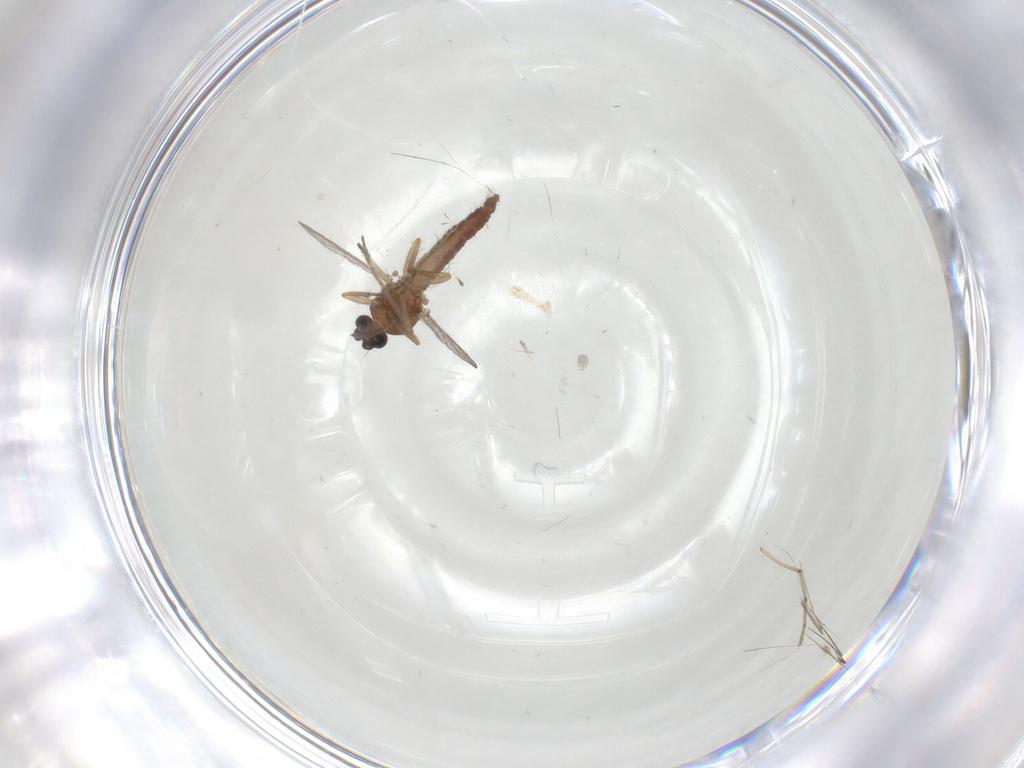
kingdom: Animalia
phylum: Arthropoda
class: Insecta
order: Diptera
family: Ceratopogonidae
